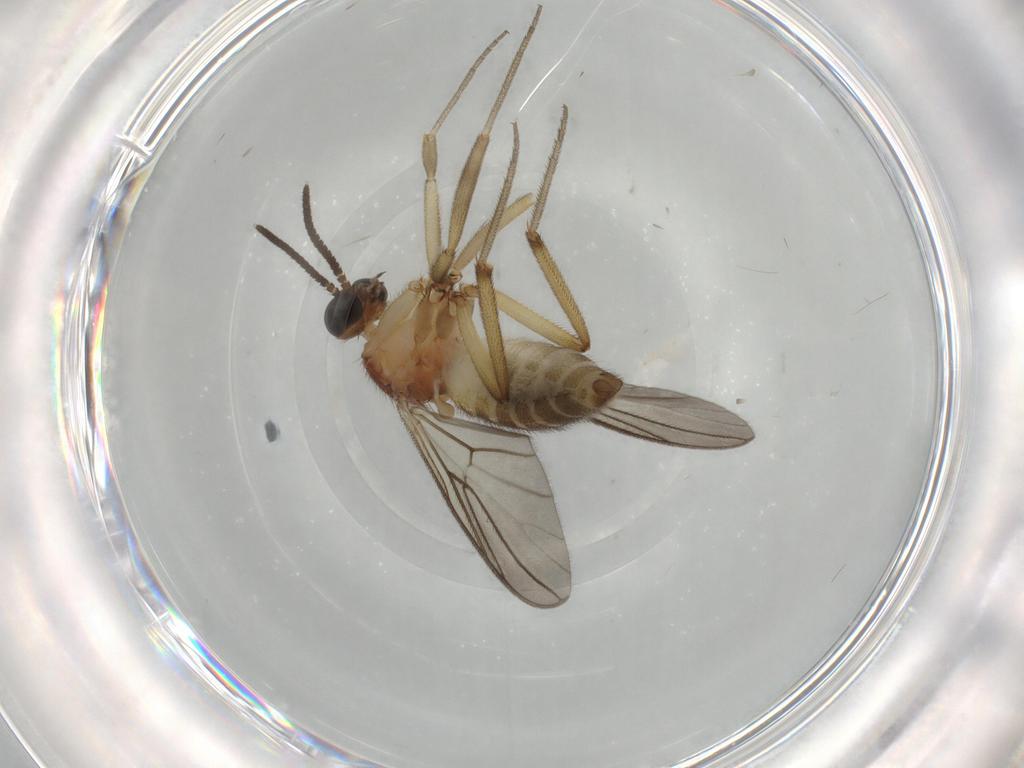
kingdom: Animalia
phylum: Arthropoda
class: Insecta
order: Diptera
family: Anisopodidae
